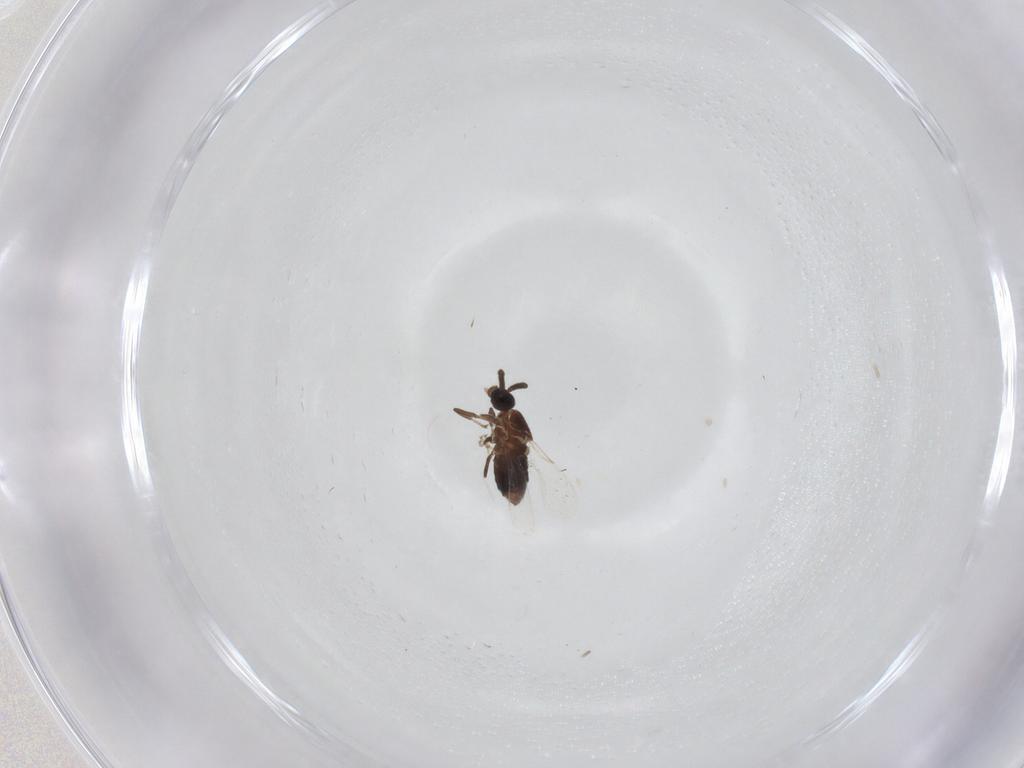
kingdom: Animalia
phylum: Arthropoda
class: Insecta
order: Diptera
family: Scatopsidae
